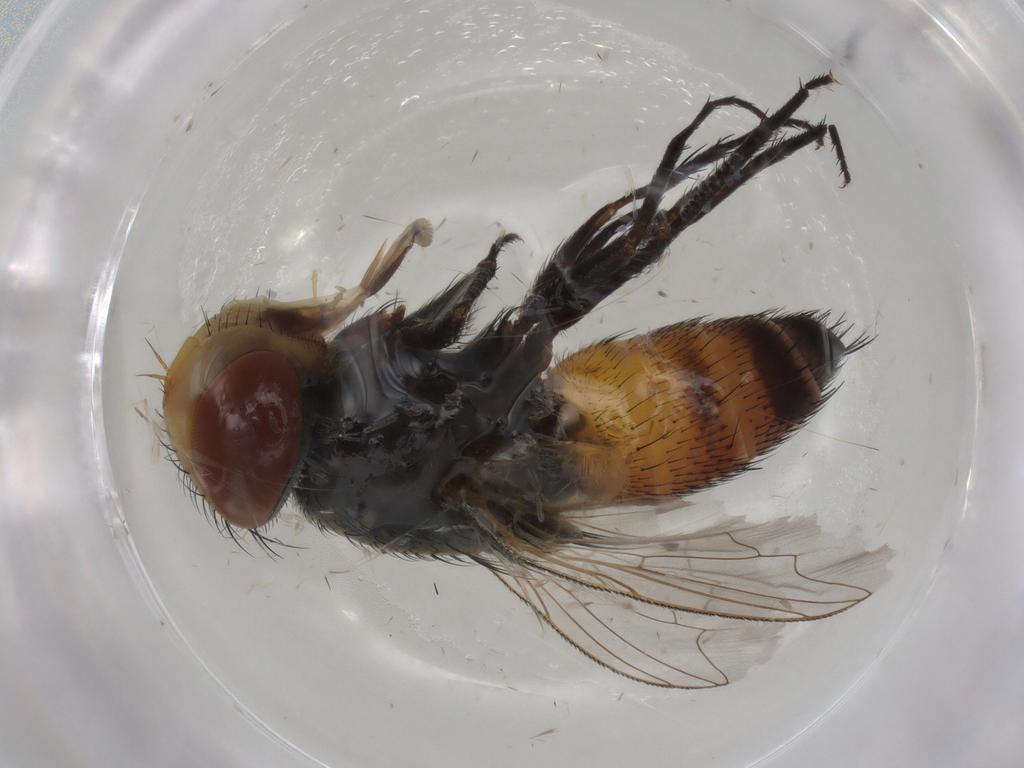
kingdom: Animalia
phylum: Arthropoda
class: Insecta
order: Diptera
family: Sarcophagidae
